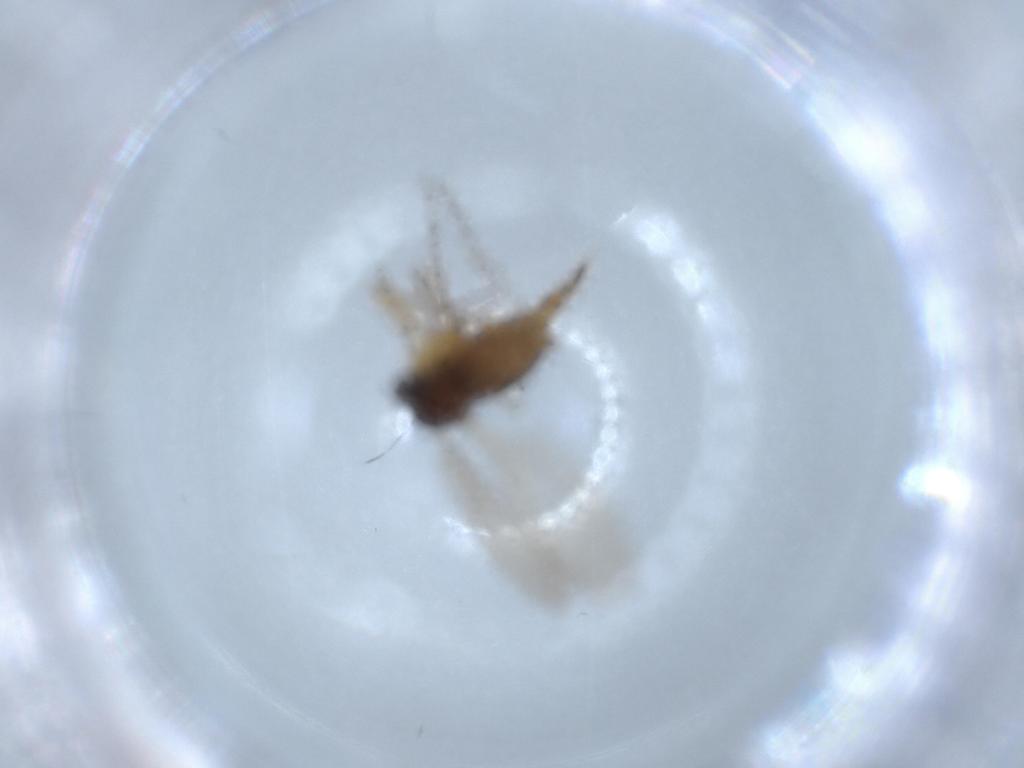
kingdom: Animalia
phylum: Arthropoda
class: Insecta
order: Diptera
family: Sciaridae
